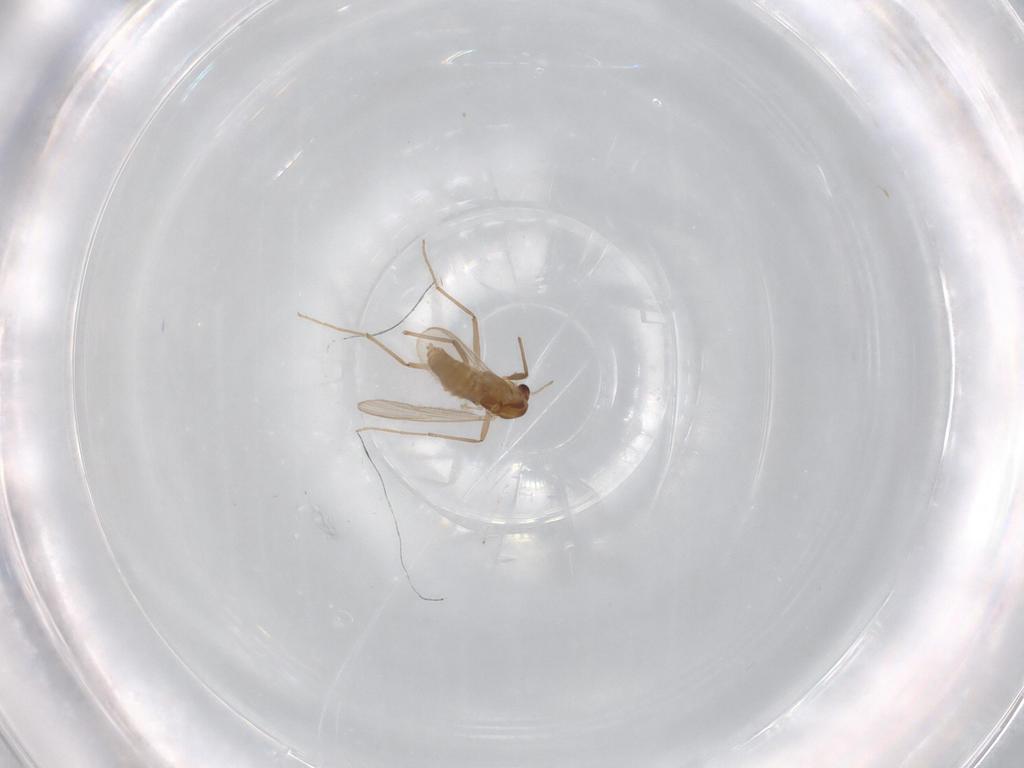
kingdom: Animalia
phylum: Arthropoda
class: Insecta
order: Diptera
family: Chironomidae
